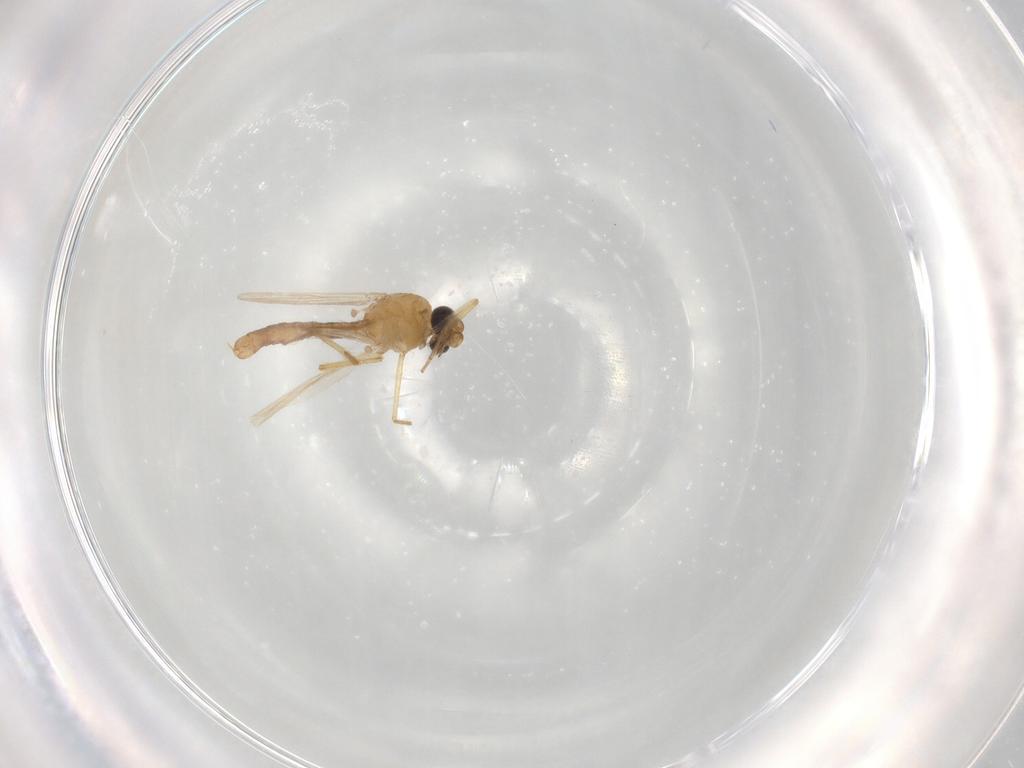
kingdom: Animalia
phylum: Arthropoda
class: Insecta
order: Diptera
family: Ceratopogonidae
